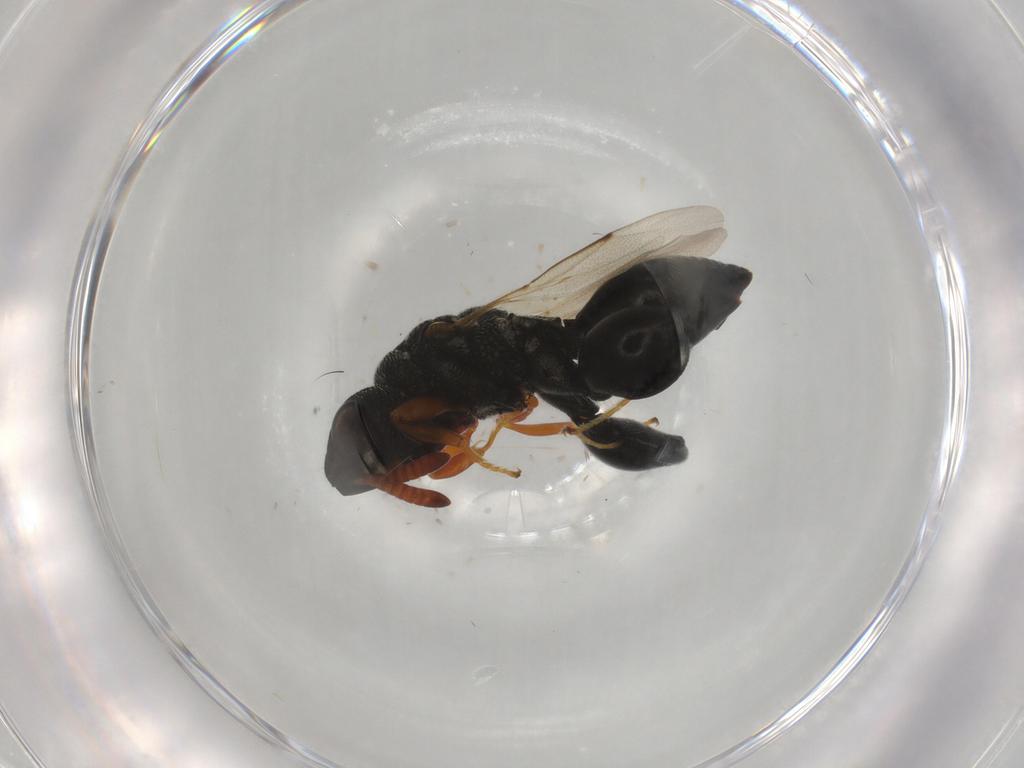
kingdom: Animalia
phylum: Arthropoda
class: Insecta
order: Hymenoptera
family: Chalcididae
